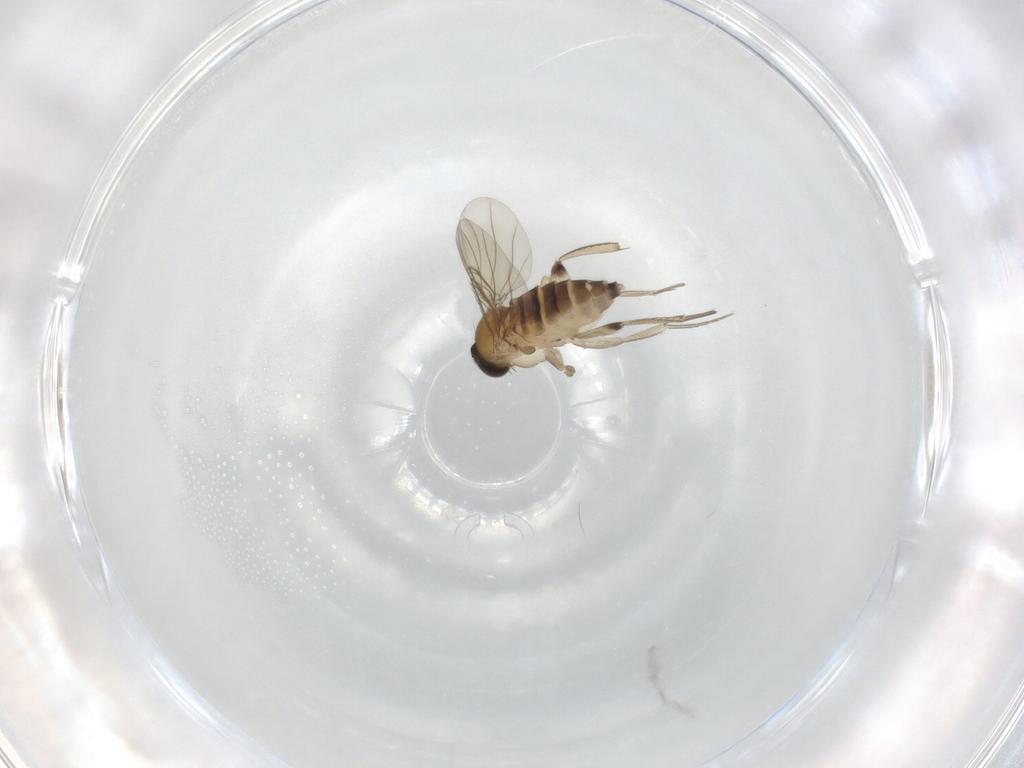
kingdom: Animalia
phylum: Arthropoda
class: Insecta
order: Diptera
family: Phoridae
